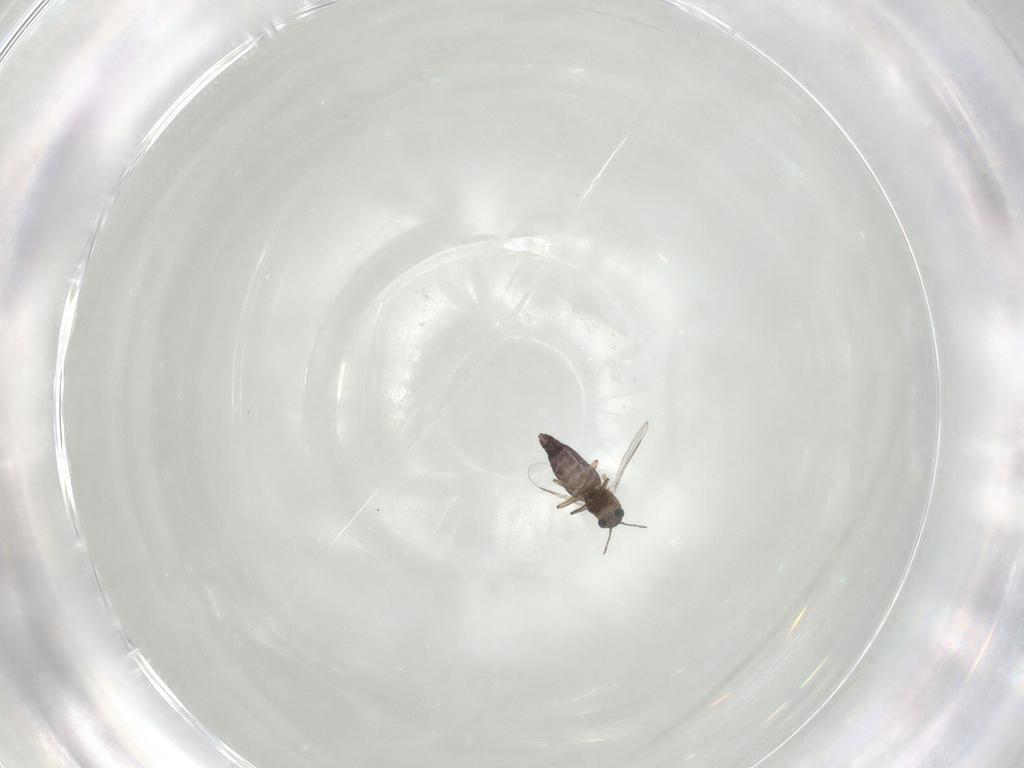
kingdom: Animalia
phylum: Arthropoda
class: Insecta
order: Diptera
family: Chironomidae
